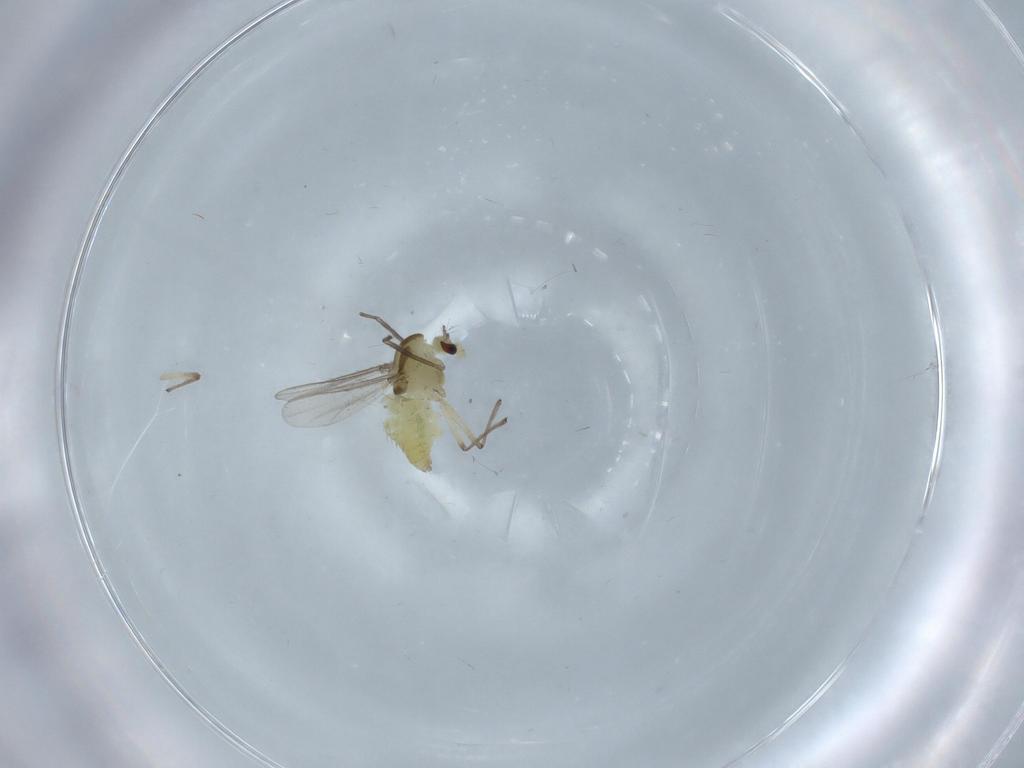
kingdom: Animalia
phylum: Arthropoda
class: Insecta
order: Diptera
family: Chironomidae
